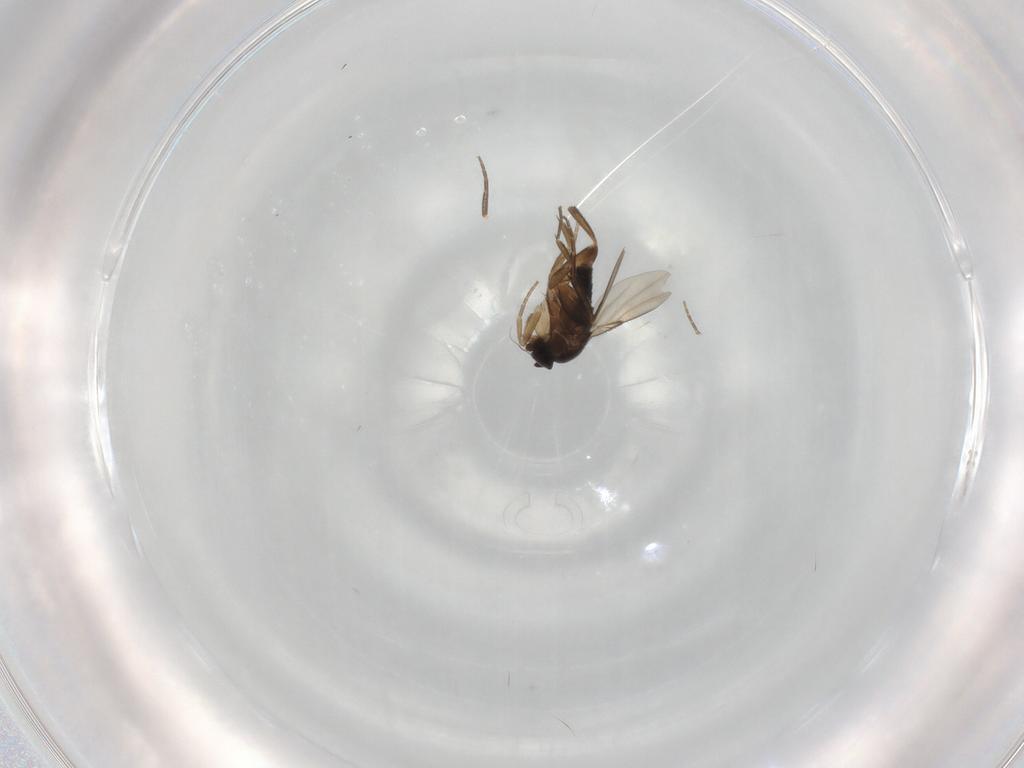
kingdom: Animalia
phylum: Arthropoda
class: Insecta
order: Diptera
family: Phoridae
